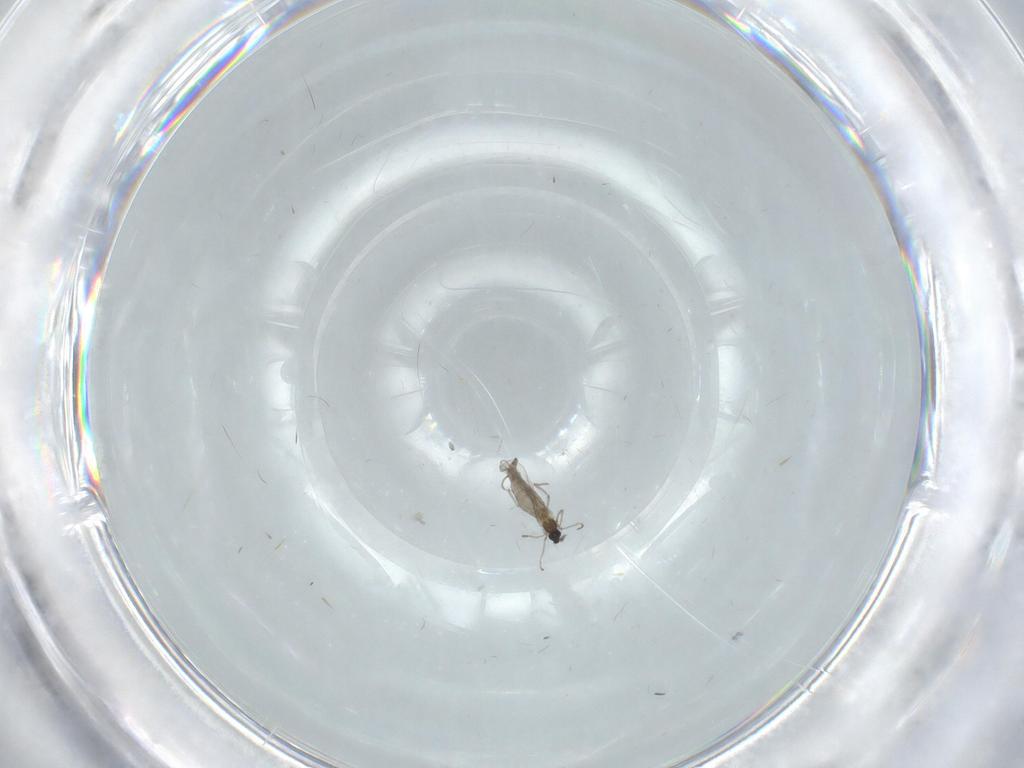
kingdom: Animalia
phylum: Arthropoda
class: Insecta
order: Diptera
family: Cecidomyiidae
